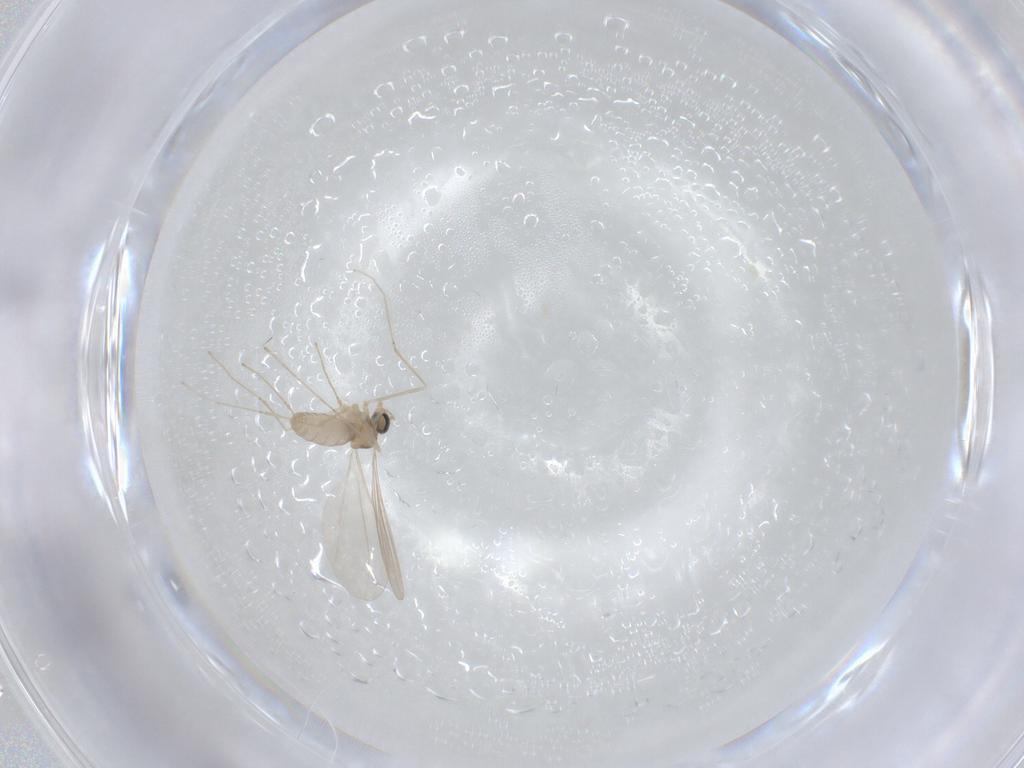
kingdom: Animalia
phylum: Arthropoda
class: Insecta
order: Diptera
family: Cecidomyiidae
